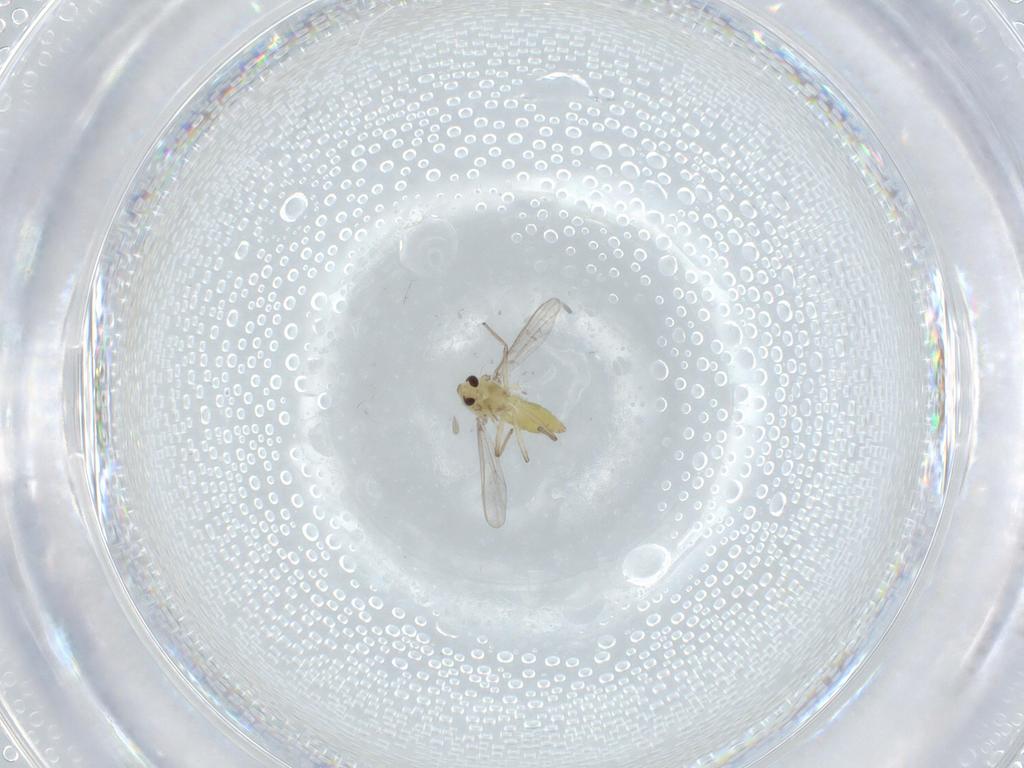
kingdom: Animalia
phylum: Arthropoda
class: Insecta
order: Diptera
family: Chironomidae
